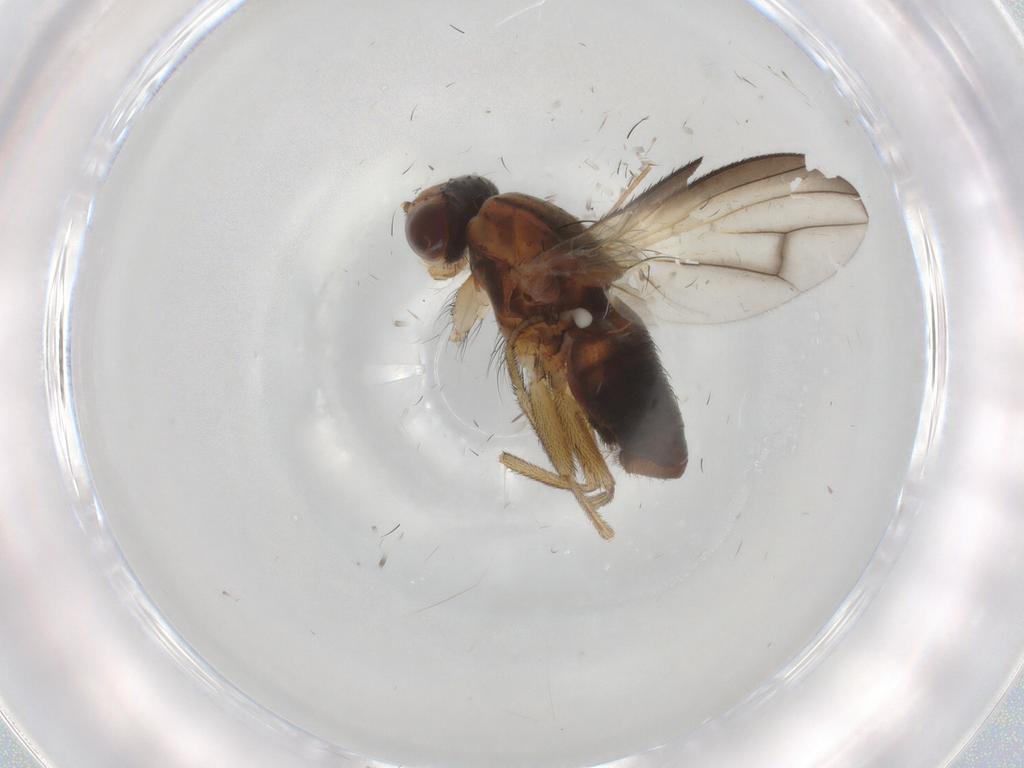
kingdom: Animalia
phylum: Arthropoda
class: Insecta
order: Diptera
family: Heleomyzidae
